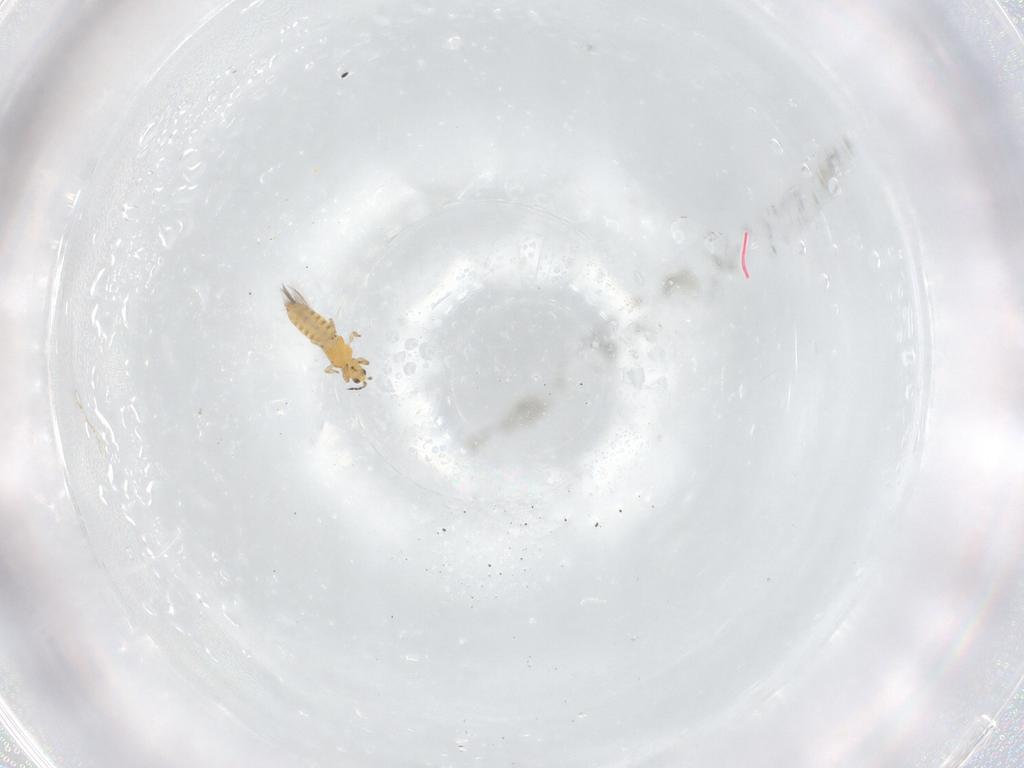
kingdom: Animalia
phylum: Arthropoda
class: Insecta
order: Thysanoptera
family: Thripidae
